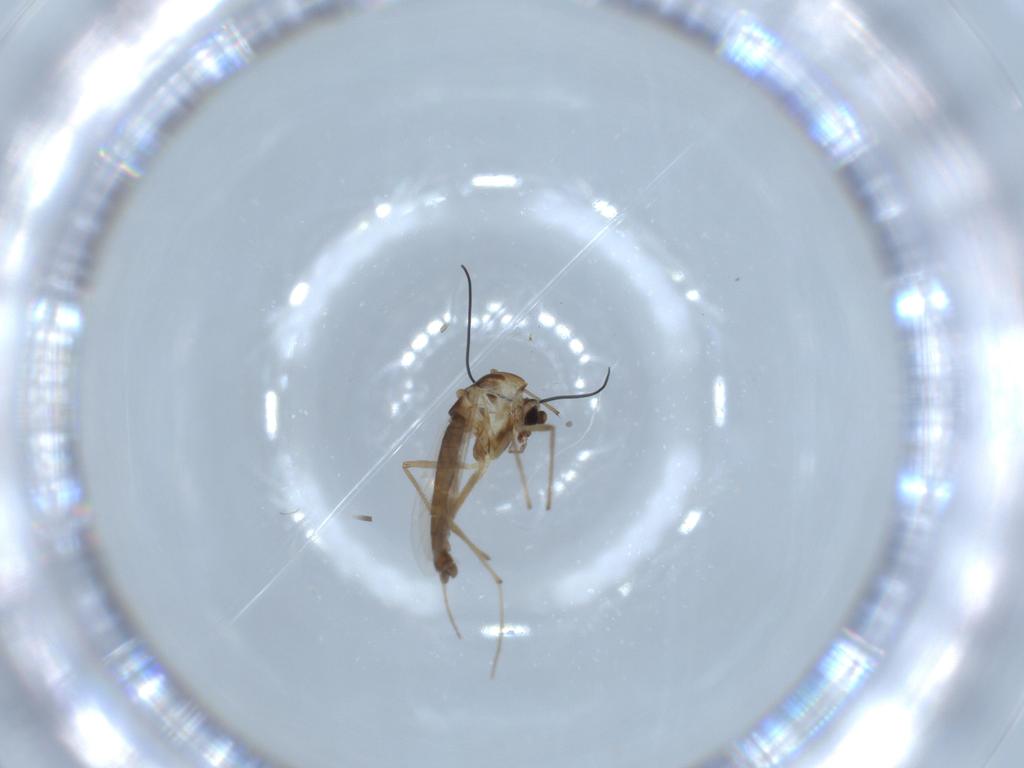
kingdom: Animalia
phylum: Arthropoda
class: Insecta
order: Diptera
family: Chironomidae
